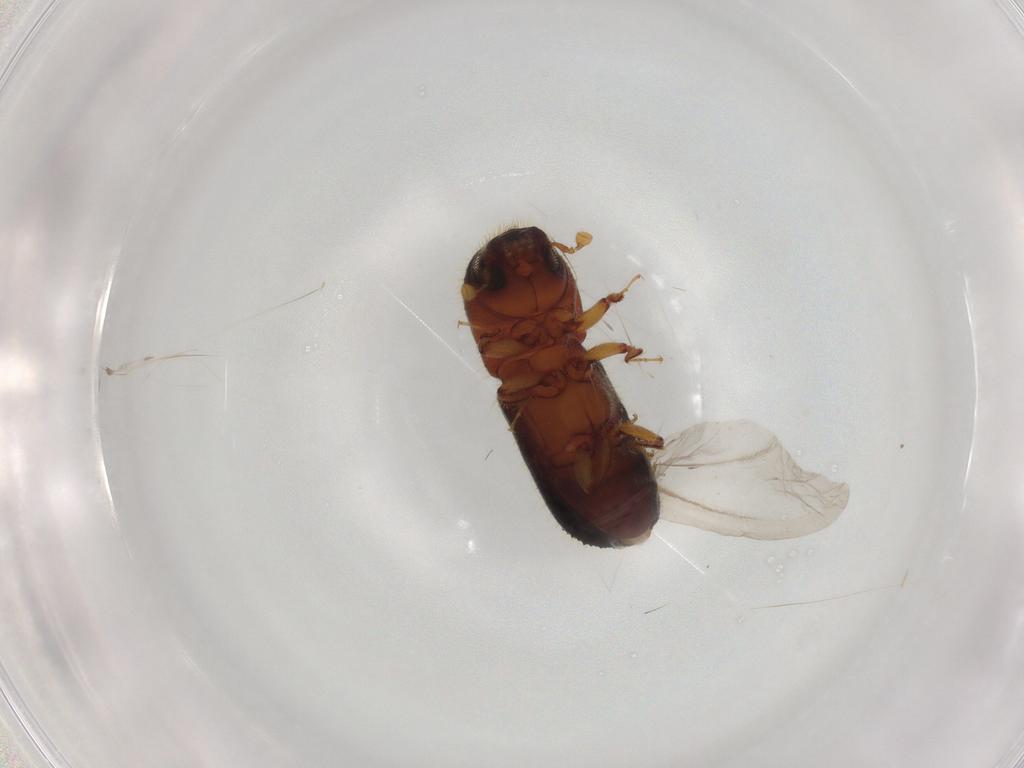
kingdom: Animalia
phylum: Arthropoda
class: Insecta
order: Coleoptera
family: Curculionidae
